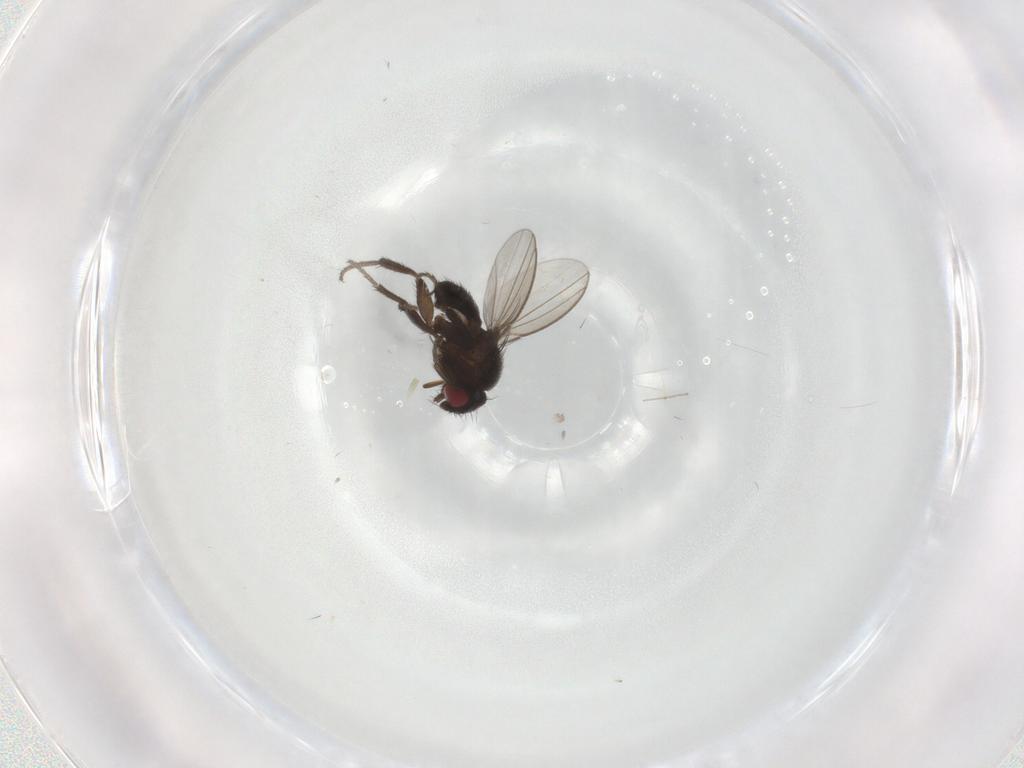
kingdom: Animalia
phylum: Arthropoda
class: Insecta
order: Diptera
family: Cecidomyiidae
